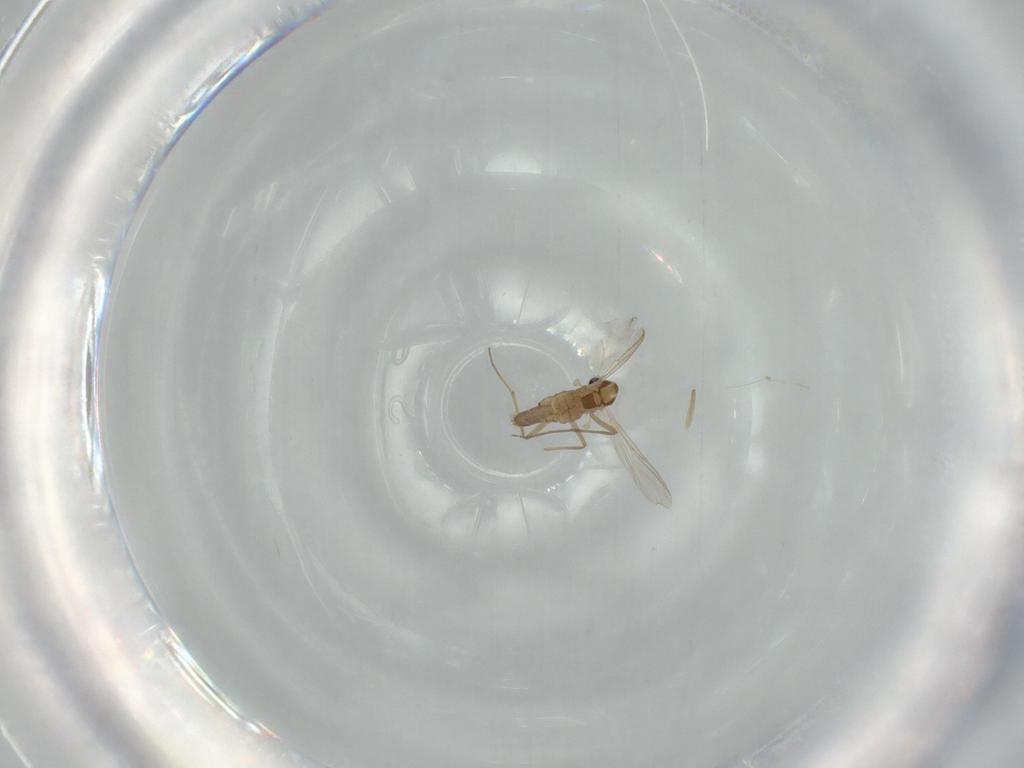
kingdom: Animalia
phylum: Arthropoda
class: Insecta
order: Diptera
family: Chironomidae
